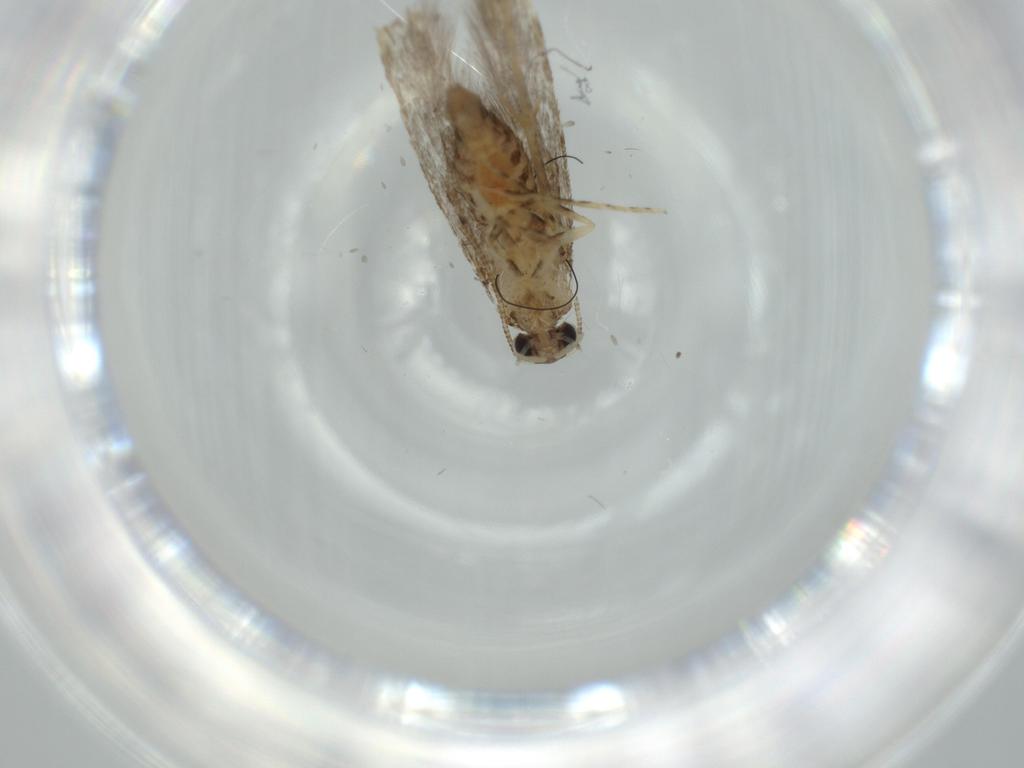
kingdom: Animalia
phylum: Arthropoda
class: Insecta
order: Lepidoptera
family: Tineidae
